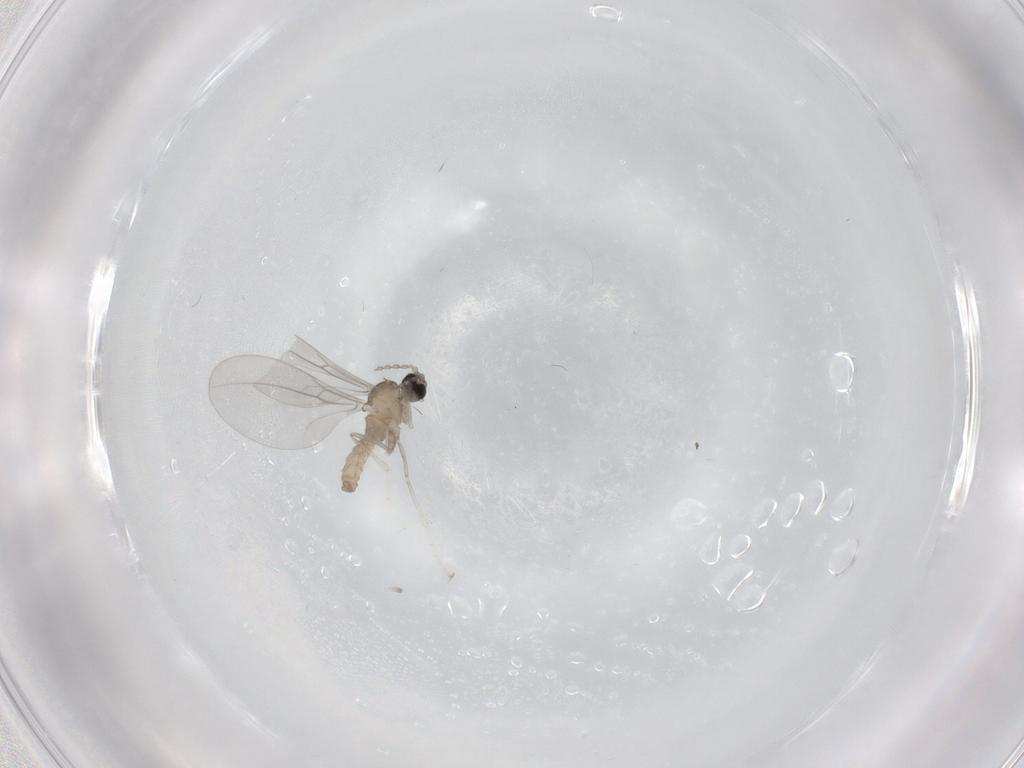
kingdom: Animalia
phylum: Arthropoda
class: Insecta
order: Diptera
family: Cecidomyiidae
